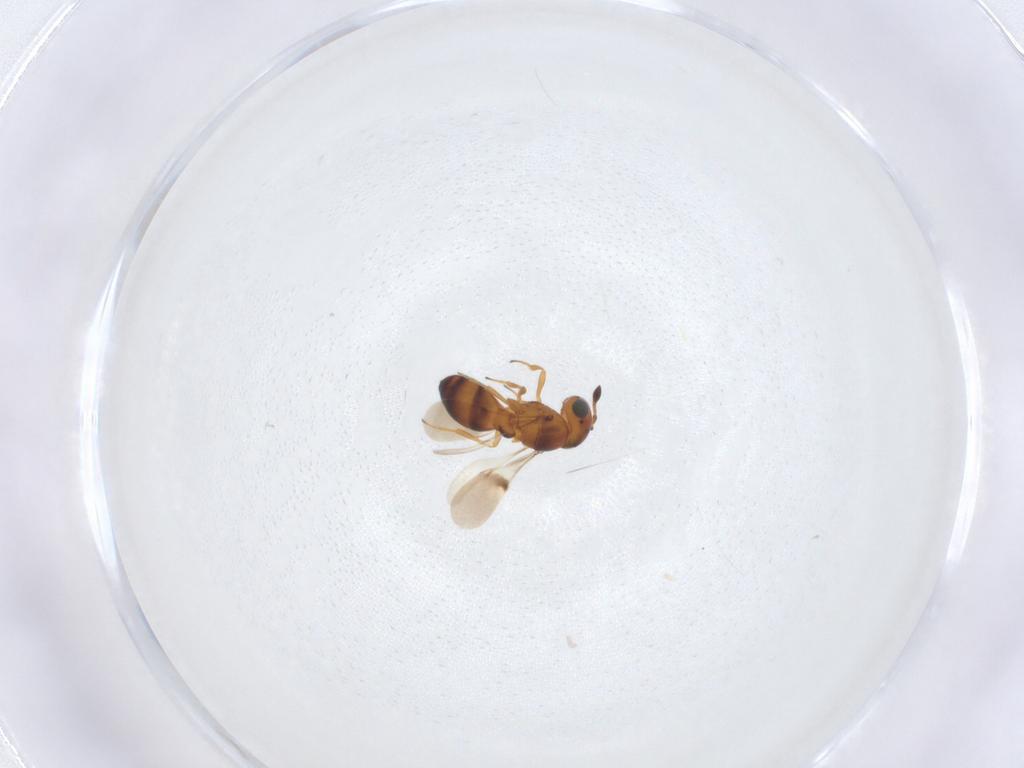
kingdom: Animalia
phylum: Arthropoda
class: Insecta
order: Hymenoptera
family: Scelionidae
